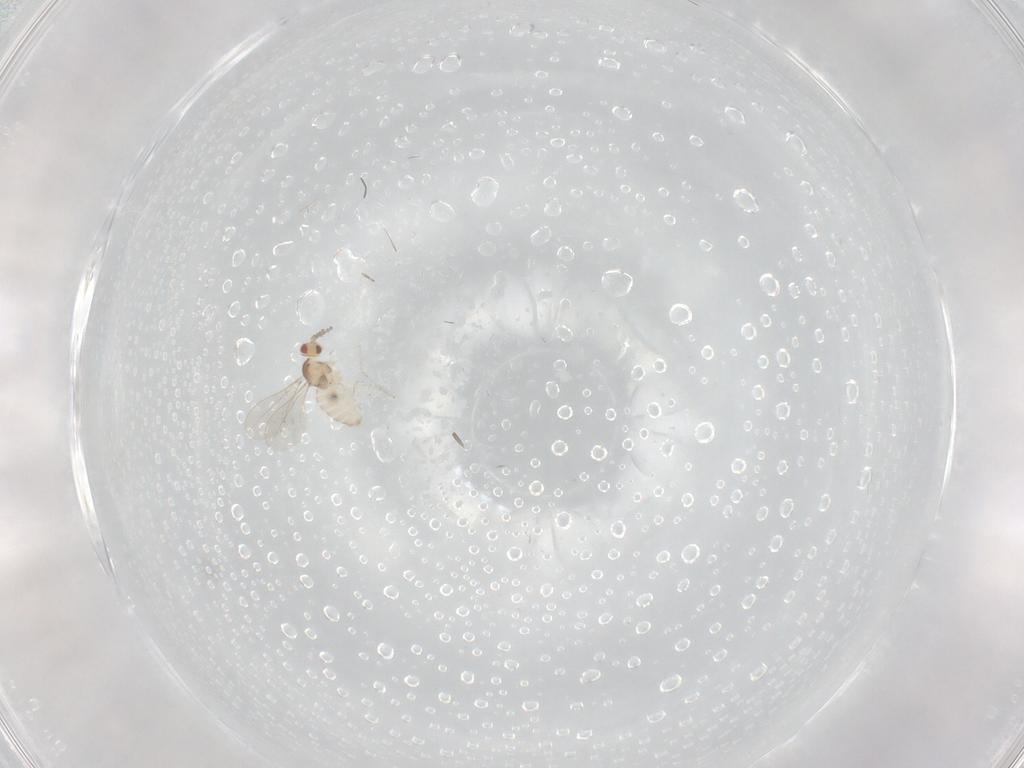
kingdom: Animalia
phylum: Arthropoda
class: Insecta
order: Diptera
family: Cecidomyiidae
